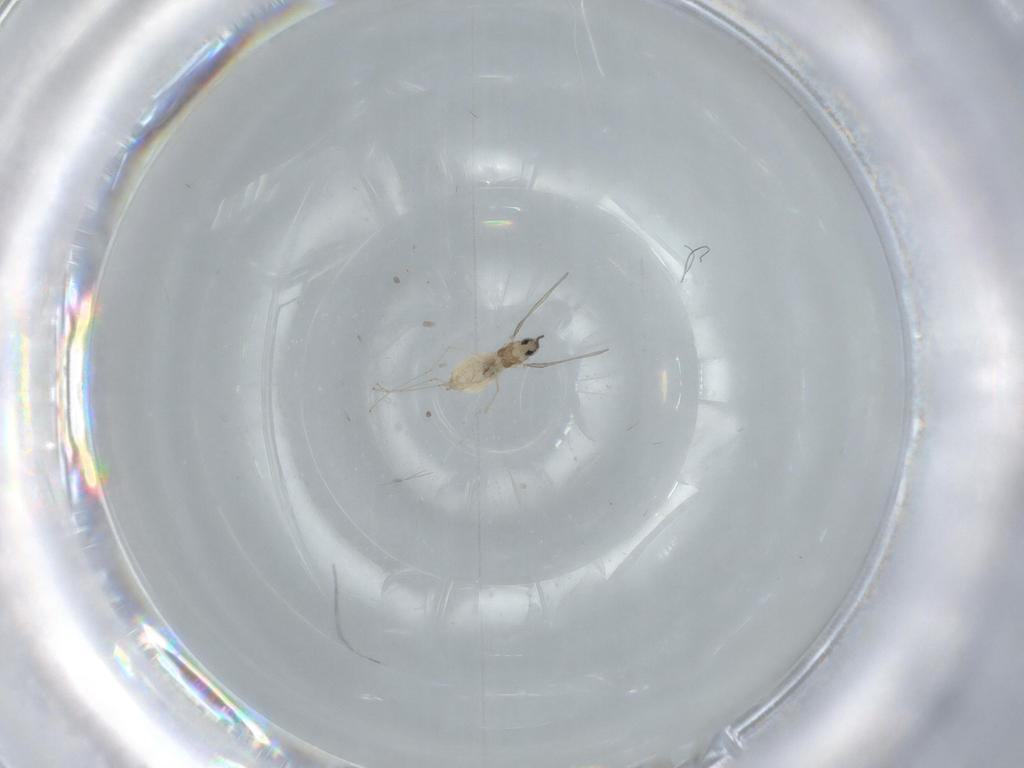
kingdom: Animalia
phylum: Arthropoda
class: Insecta
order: Diptera
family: Cecidomyiidae
